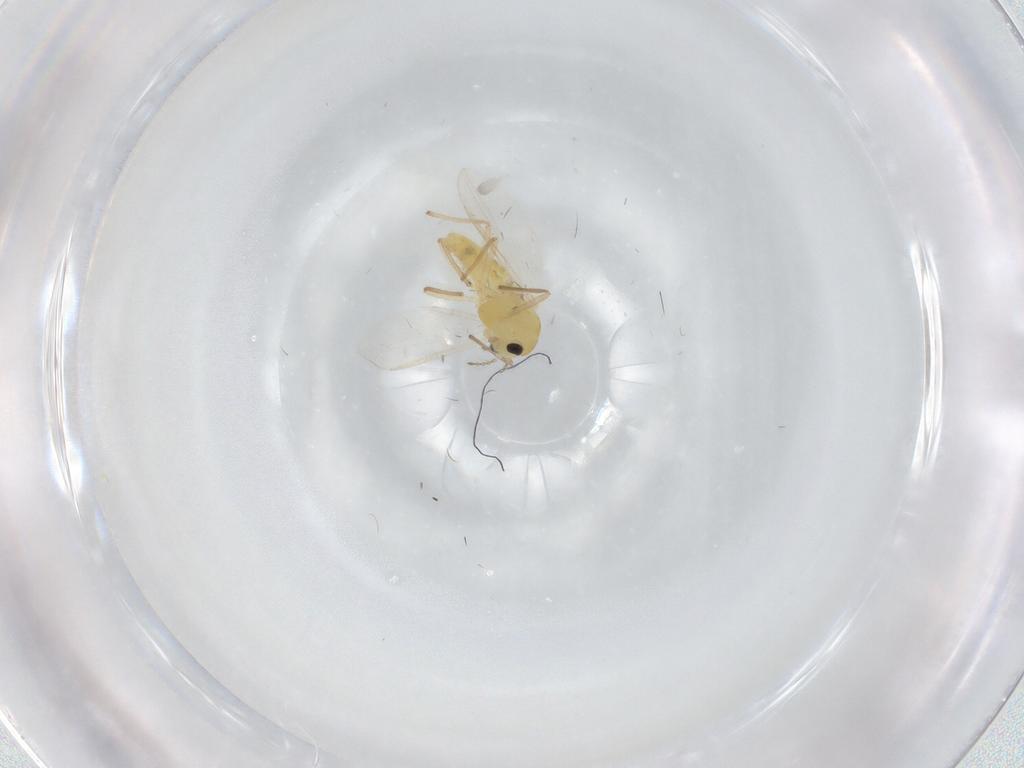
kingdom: Animalia
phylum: Arthropoda
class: Insecta
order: Diptera
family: Chironomidae
